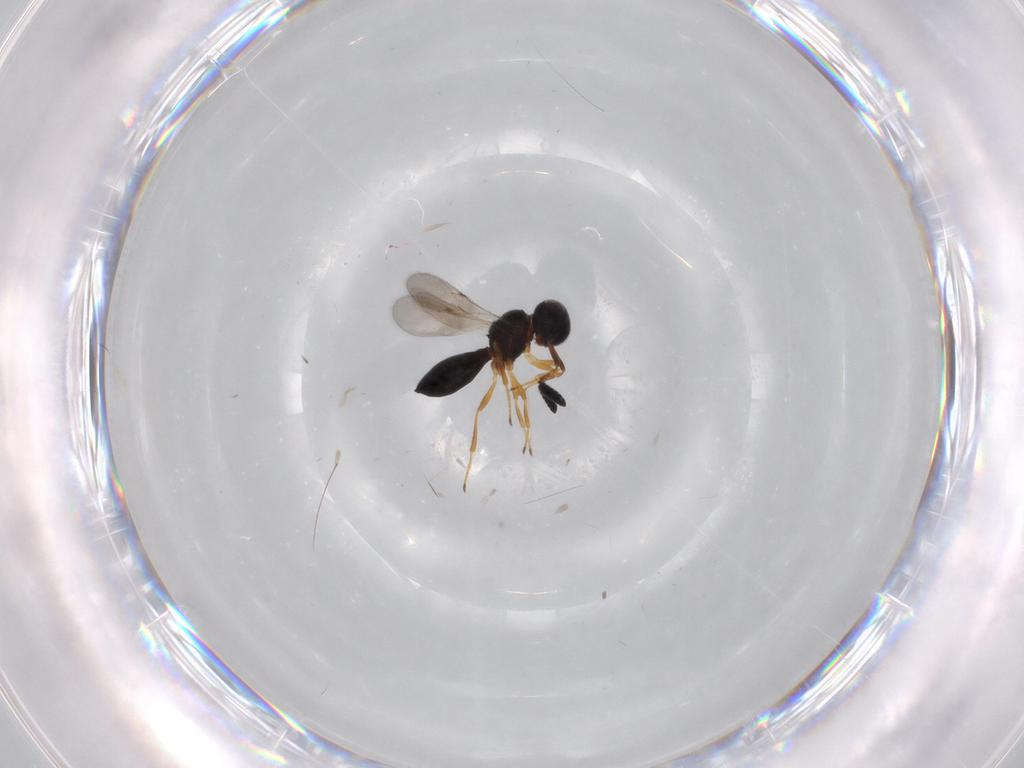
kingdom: Animalia
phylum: Arthropoda
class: Insecta
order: Hymenoptera
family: Scelionidae
